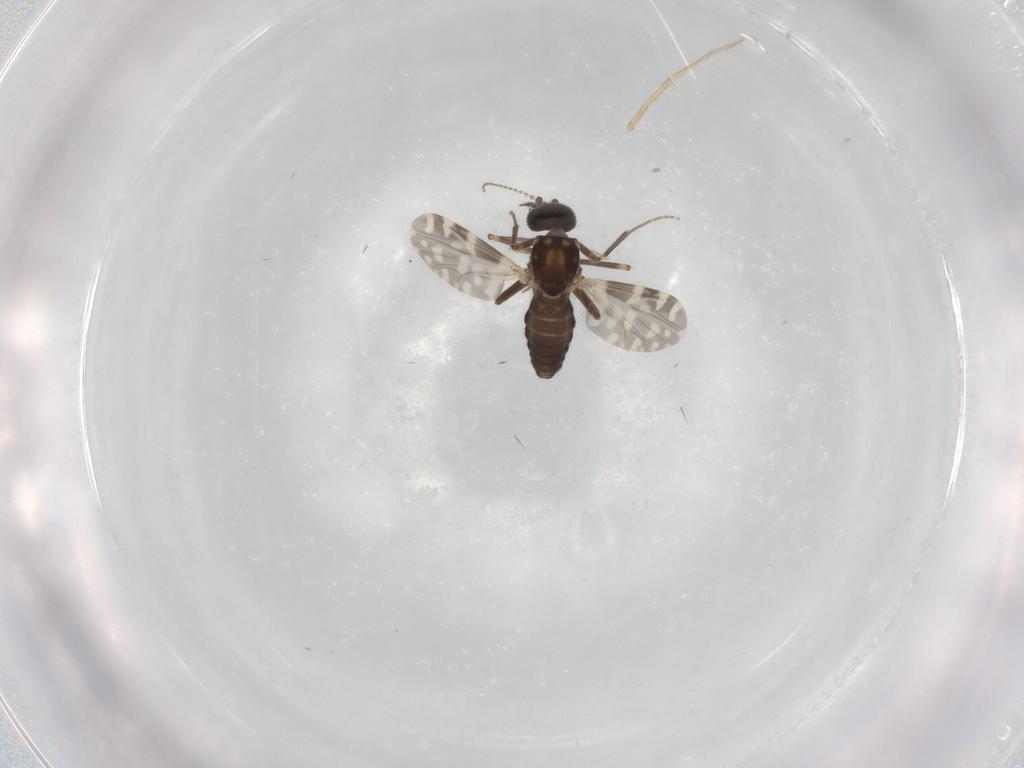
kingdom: Animalia
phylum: Arthropoda
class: Insecta
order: Diptera
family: Ceratopogonidae
